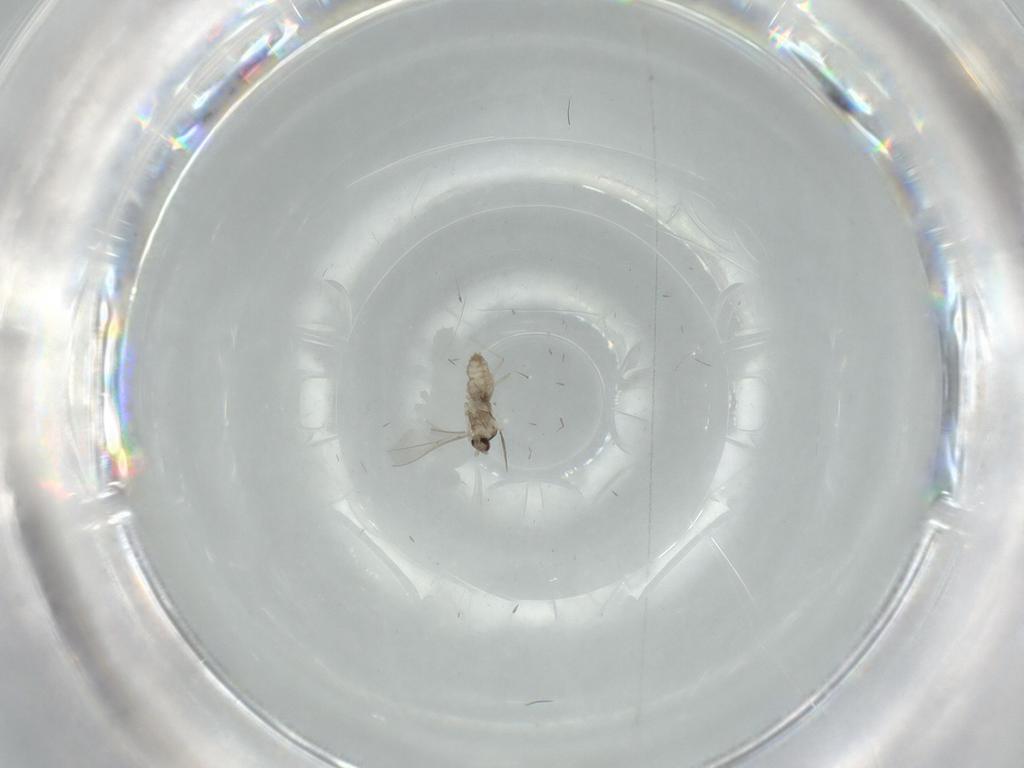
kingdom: Animalia
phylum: Arthropoda
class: Insecta
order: Diptera
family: Cecidomyiidae
